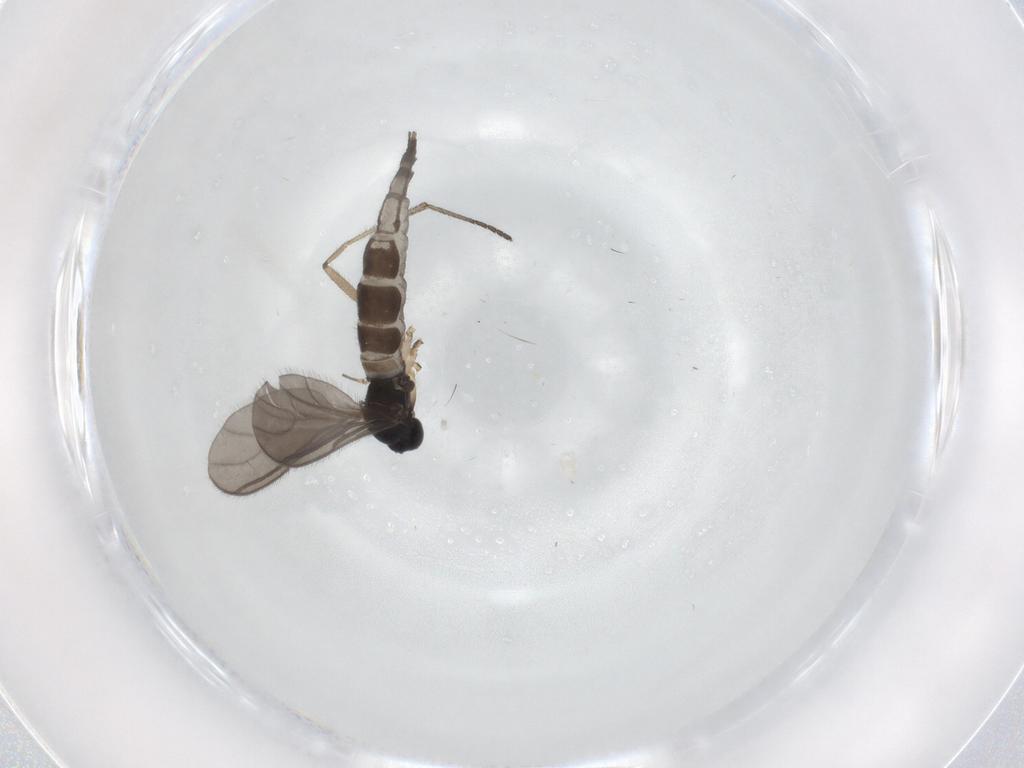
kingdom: Animalia
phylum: Arthropoda
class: Insecta
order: Diptera
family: Sciaridae
